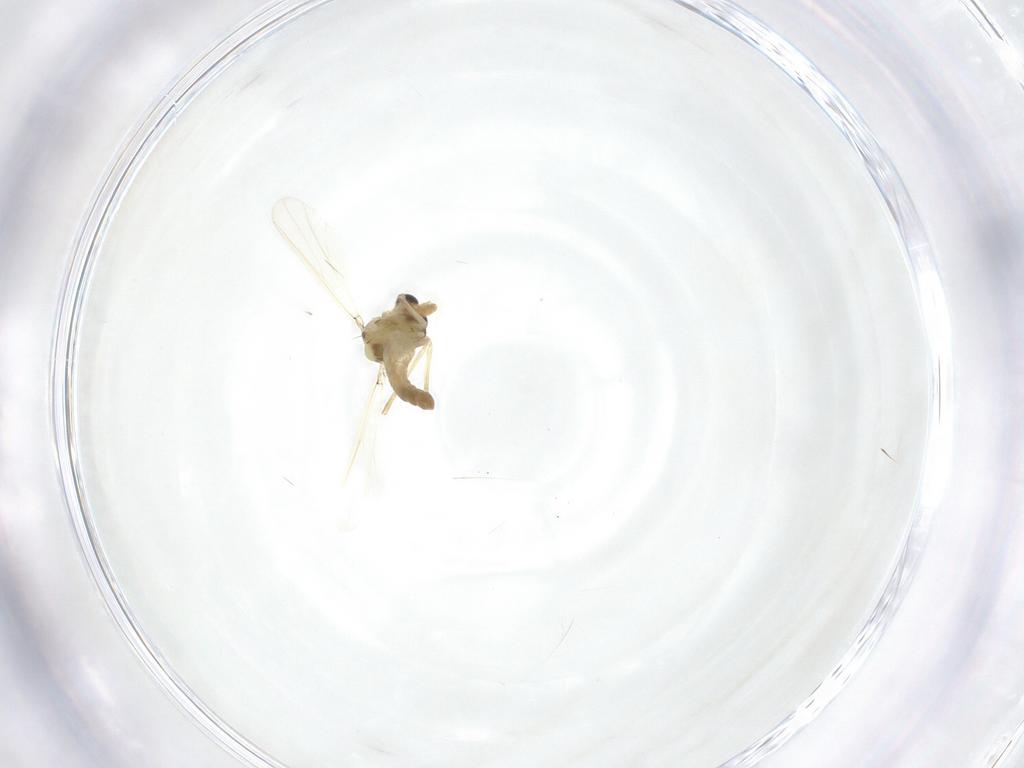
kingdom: Animalia
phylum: Arthropoda
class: Insecta
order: Diptera
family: Chironomidae
